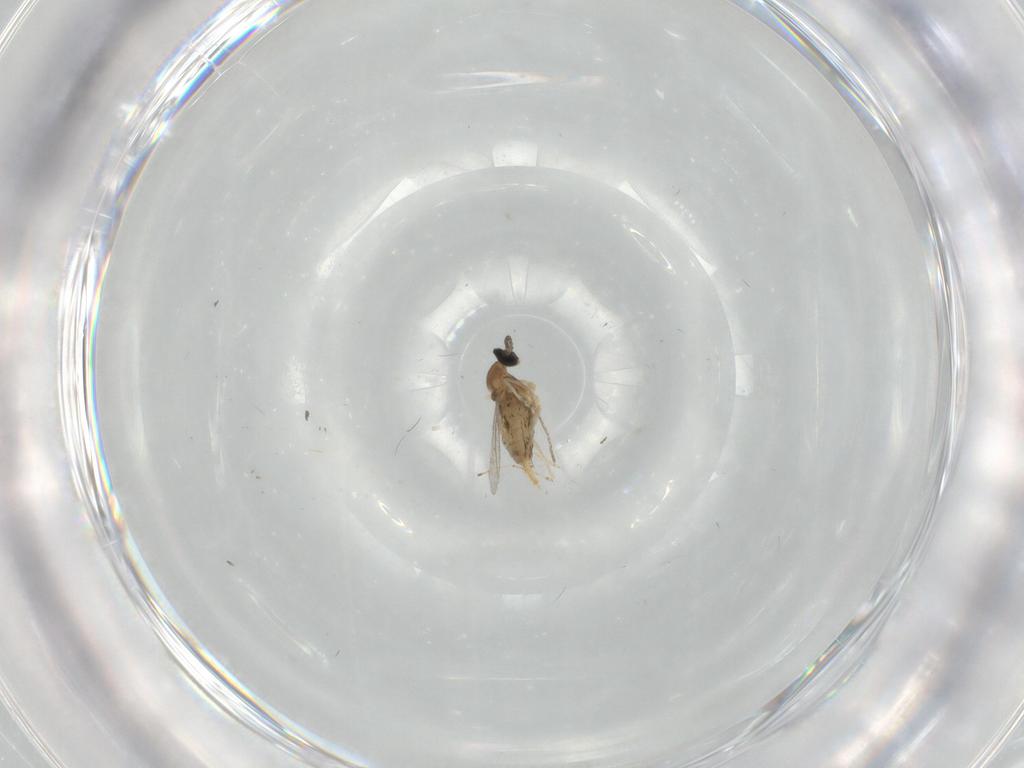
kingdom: Animalia
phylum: Arthropoda
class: Insecta
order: Diptera
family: Cecidomyiidae
